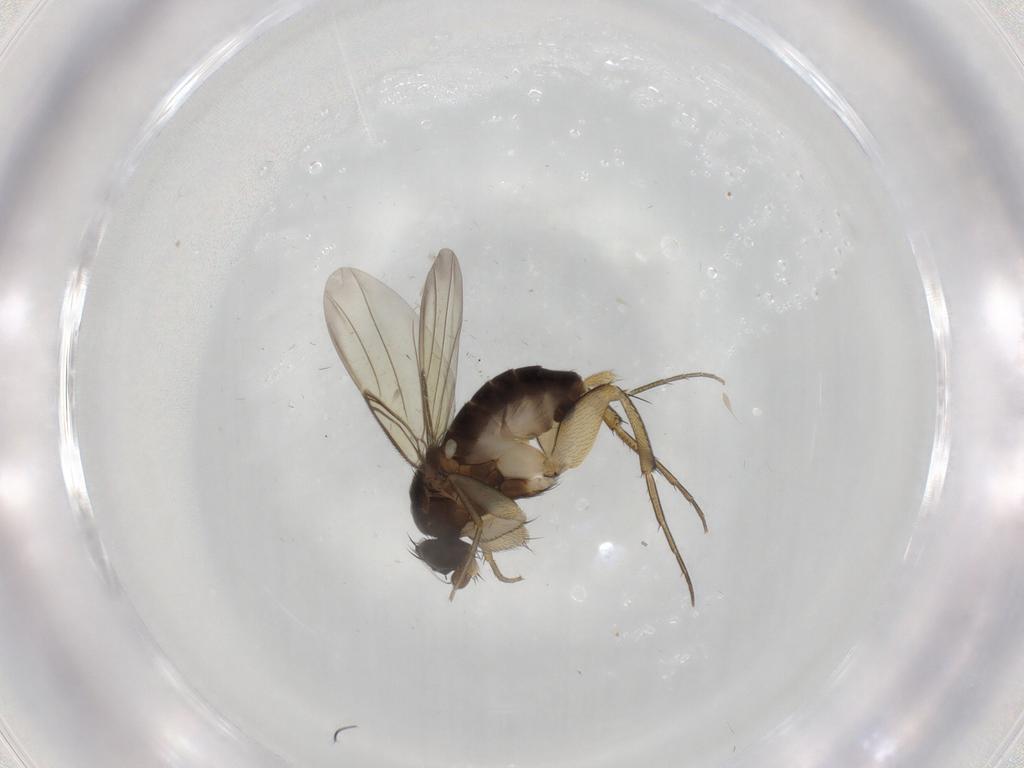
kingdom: Animalia
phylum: Arthropoda
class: Insecta
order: Diptera
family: Phoridae
